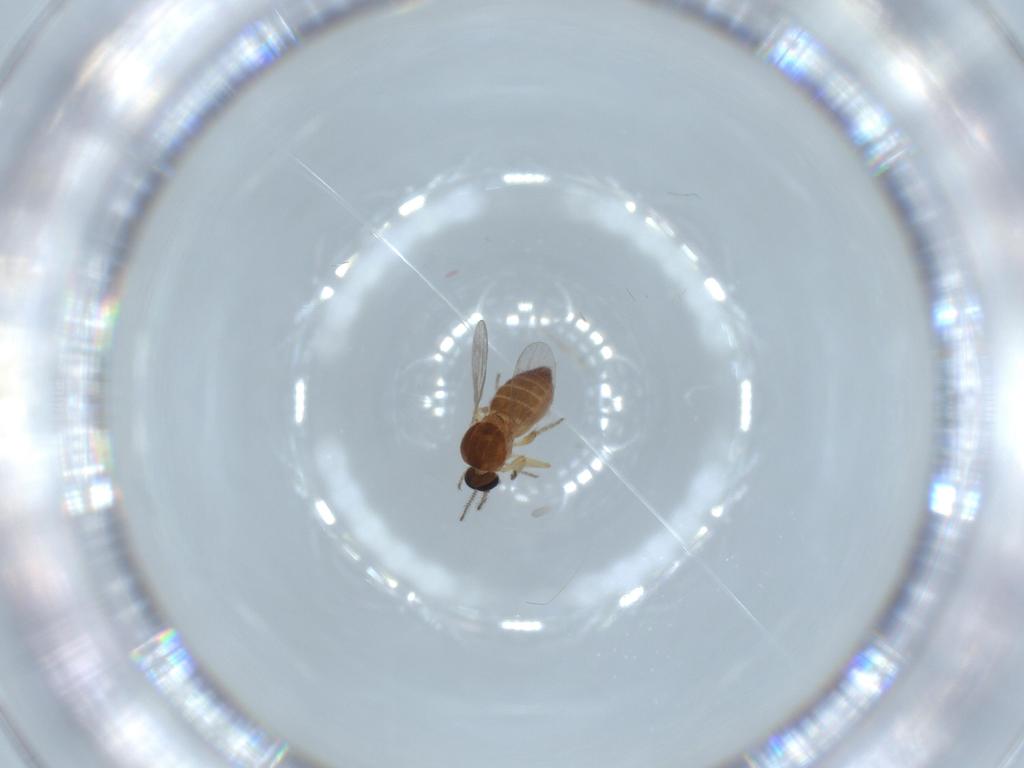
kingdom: Animalia
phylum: Arthropoda
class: Insecta
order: Diptera
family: Ceratopogonidae
